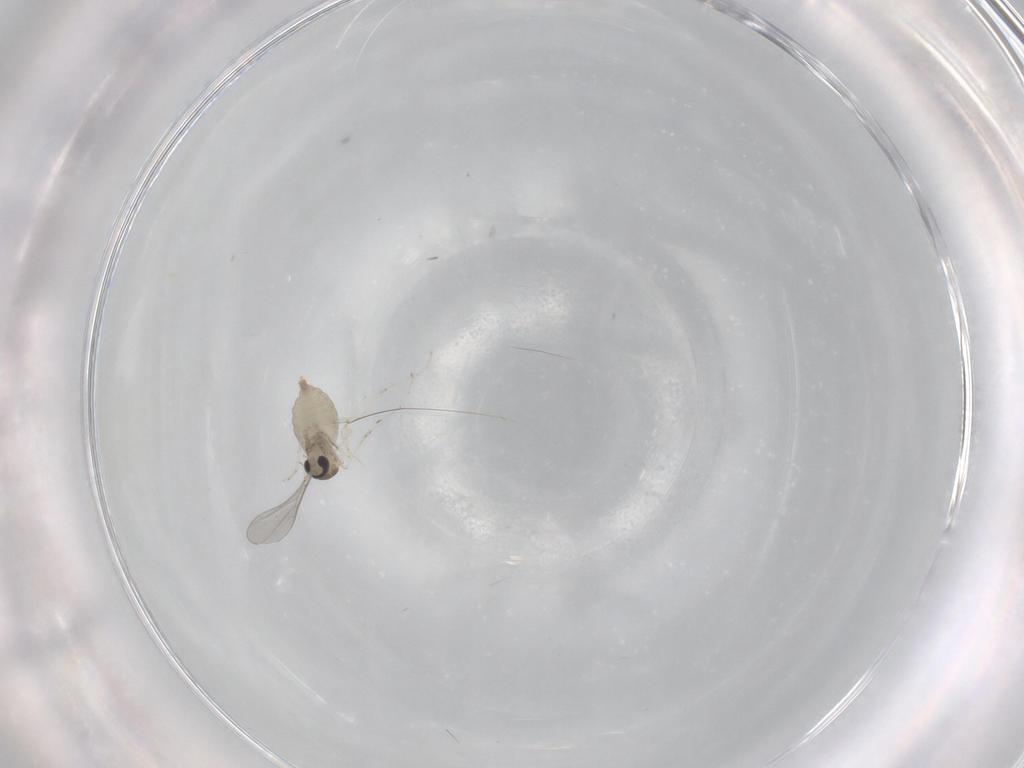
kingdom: Animalia
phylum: Arthropoda
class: Insecta
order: Diptera
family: Cecidomyiidae
